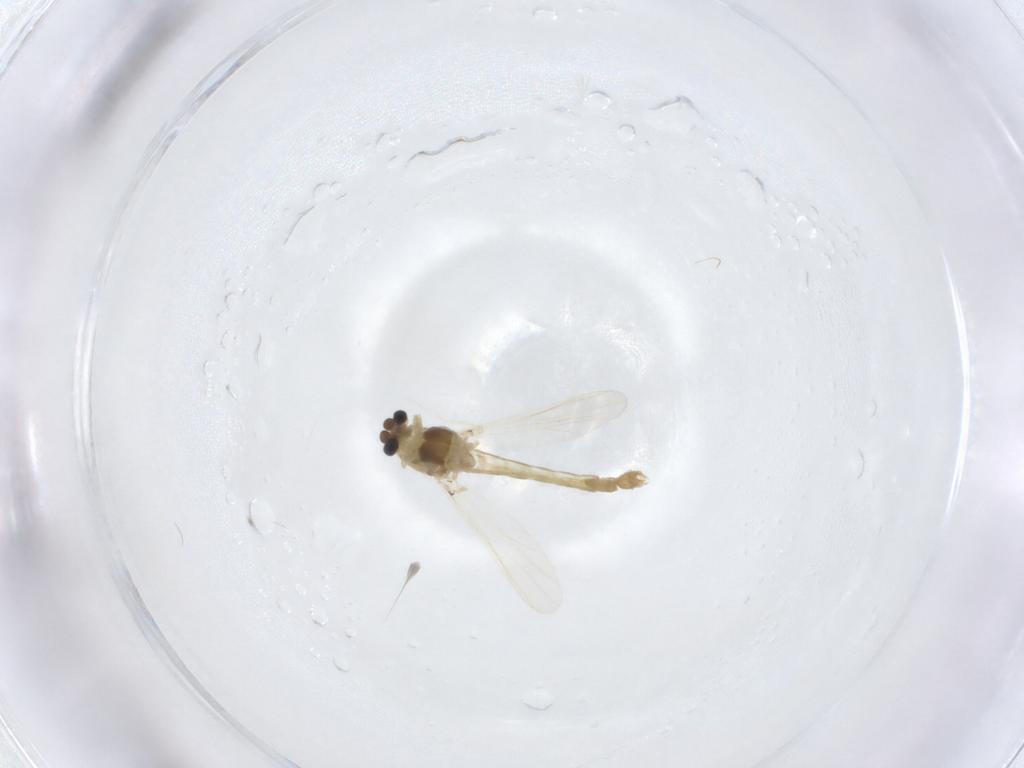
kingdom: Animalia
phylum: Arthropoda
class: Insecta
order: Diptera
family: Chironomidae
